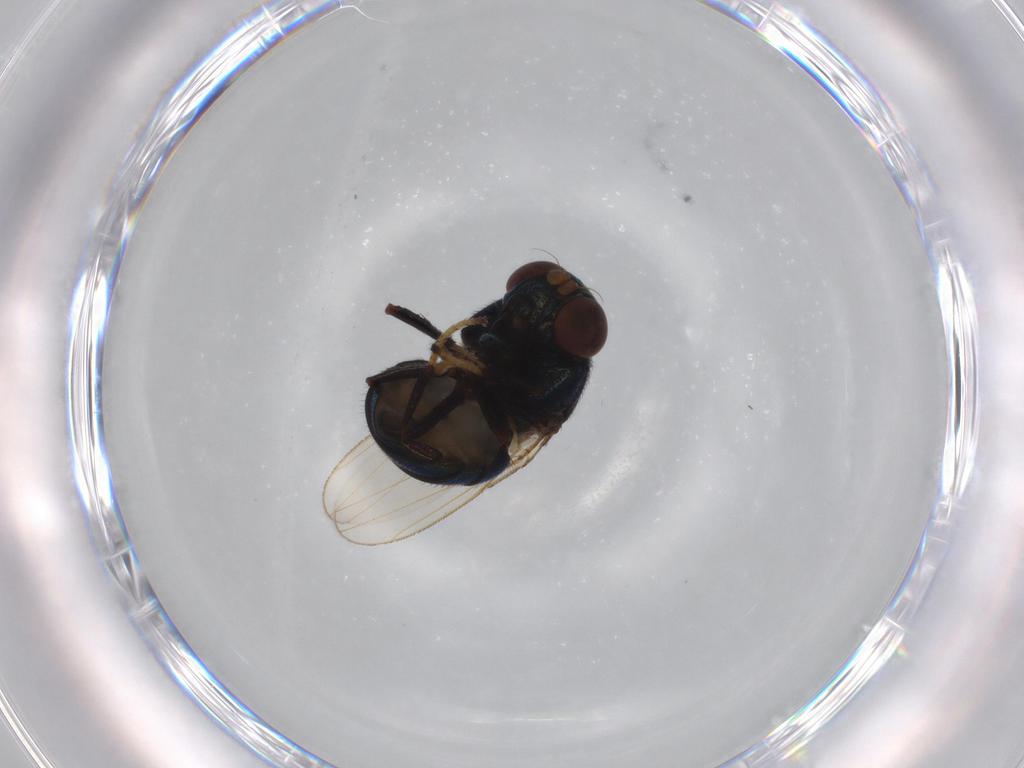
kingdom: Animalia
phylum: Arthropoda
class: Insecta
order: Diptera
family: Ephydridae
